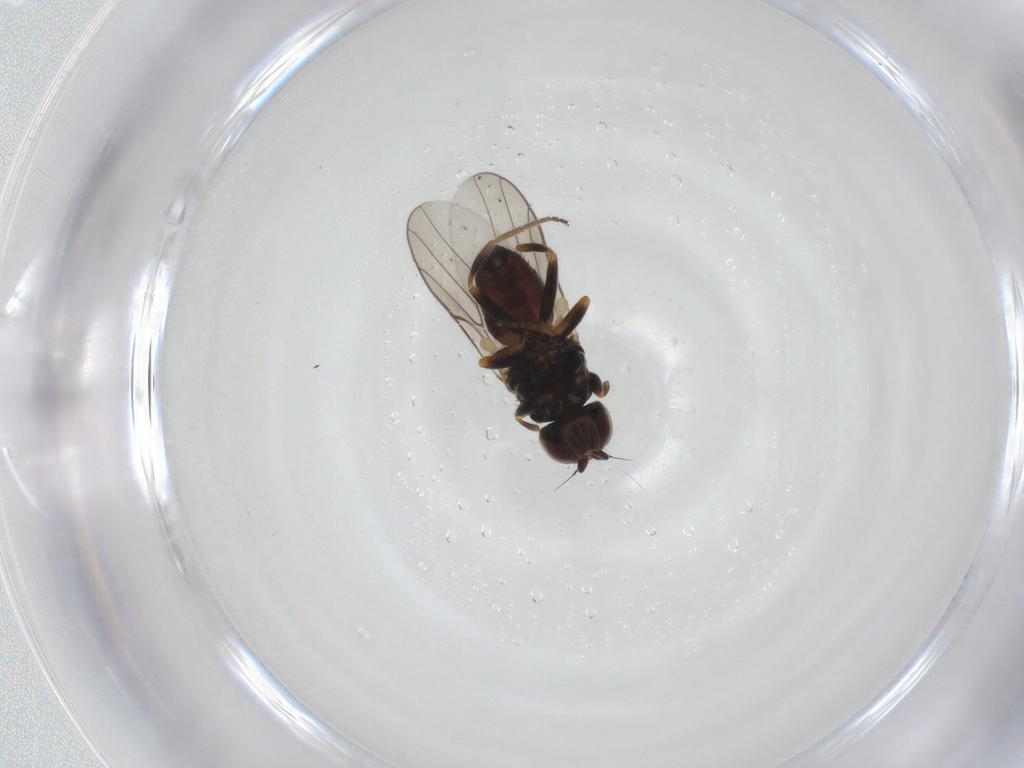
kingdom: Animalia
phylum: Arthropoda
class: Insecta
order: Diptera
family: Chloropidae
